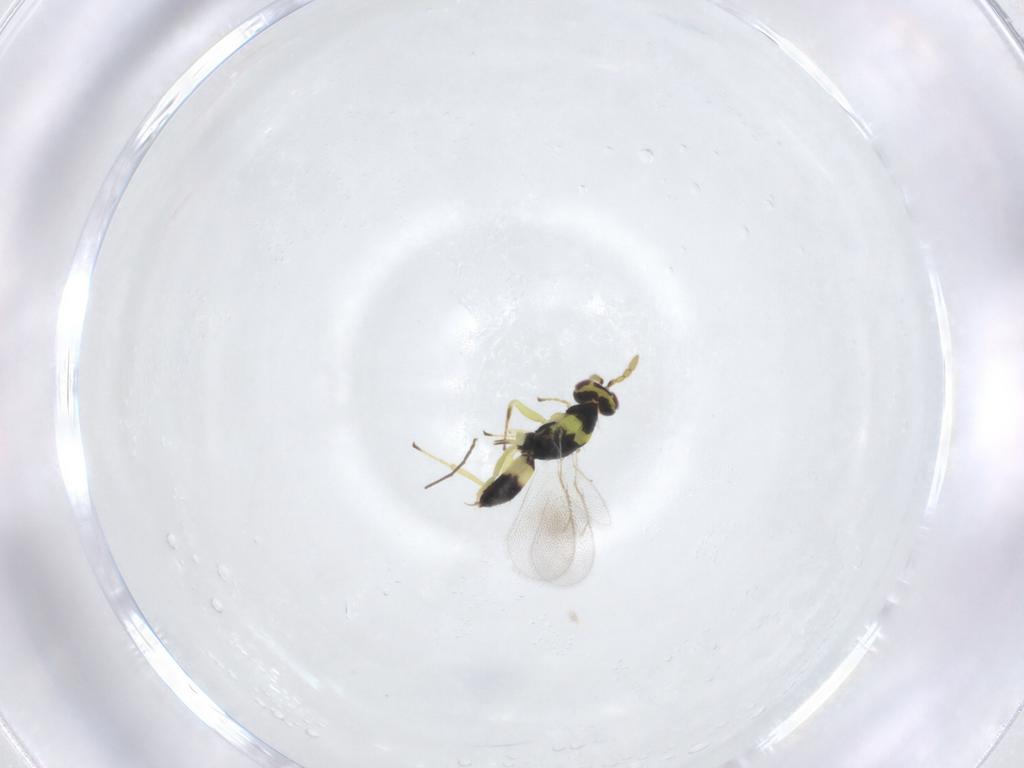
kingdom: Animalia
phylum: Arthropoda
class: Insecta
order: Hymenoptera
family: Eulophidae
